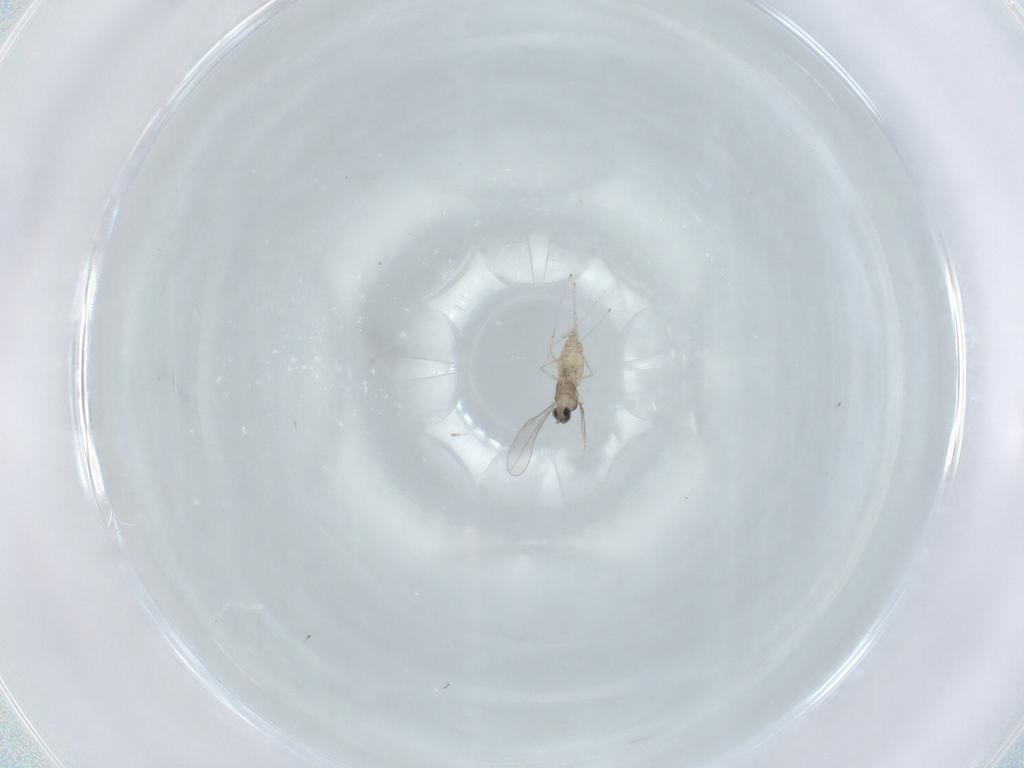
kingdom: Animalia
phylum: Arthropoda
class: Insecta
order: Diptera
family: Cecidomyiidae
